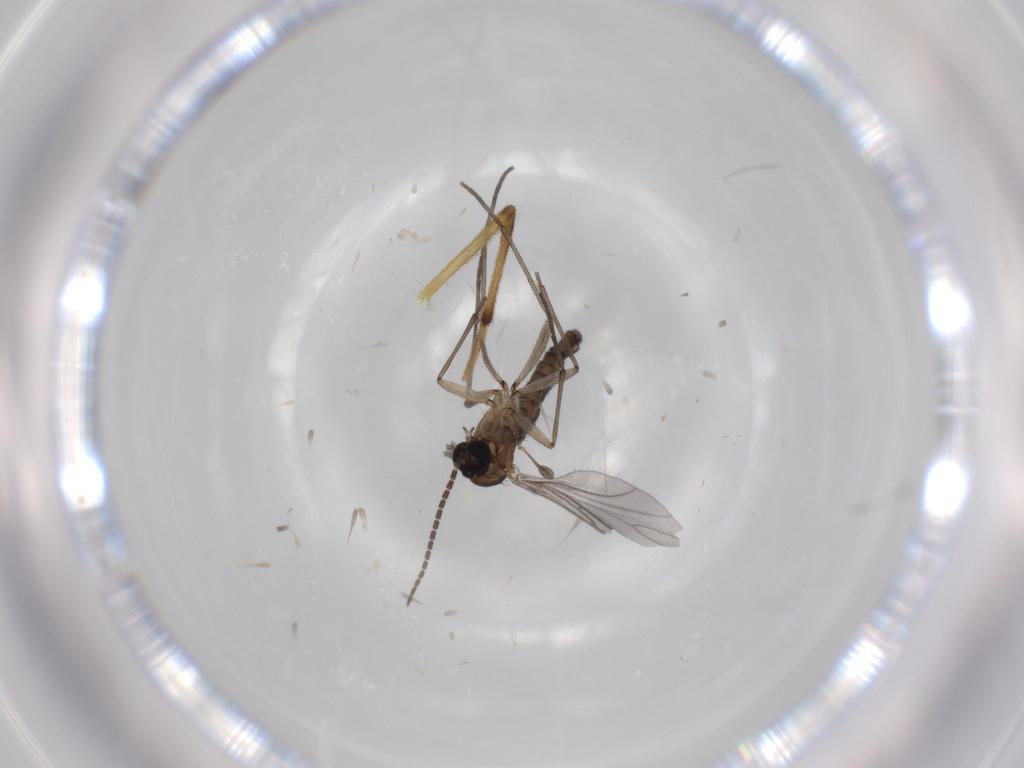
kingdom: Animalia
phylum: Arthropoda
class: Insecta
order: Diptera
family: Chironomidae
